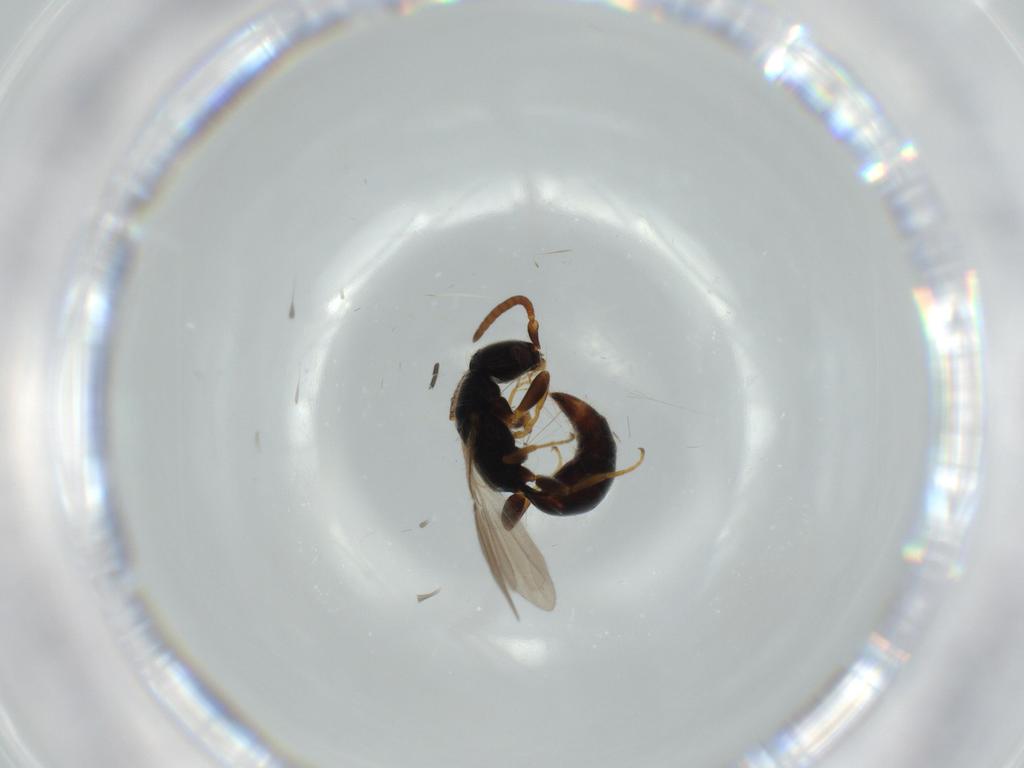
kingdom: Animalia
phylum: Arthropoda
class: Insecta
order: Hymenoptera
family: Bethylidae
